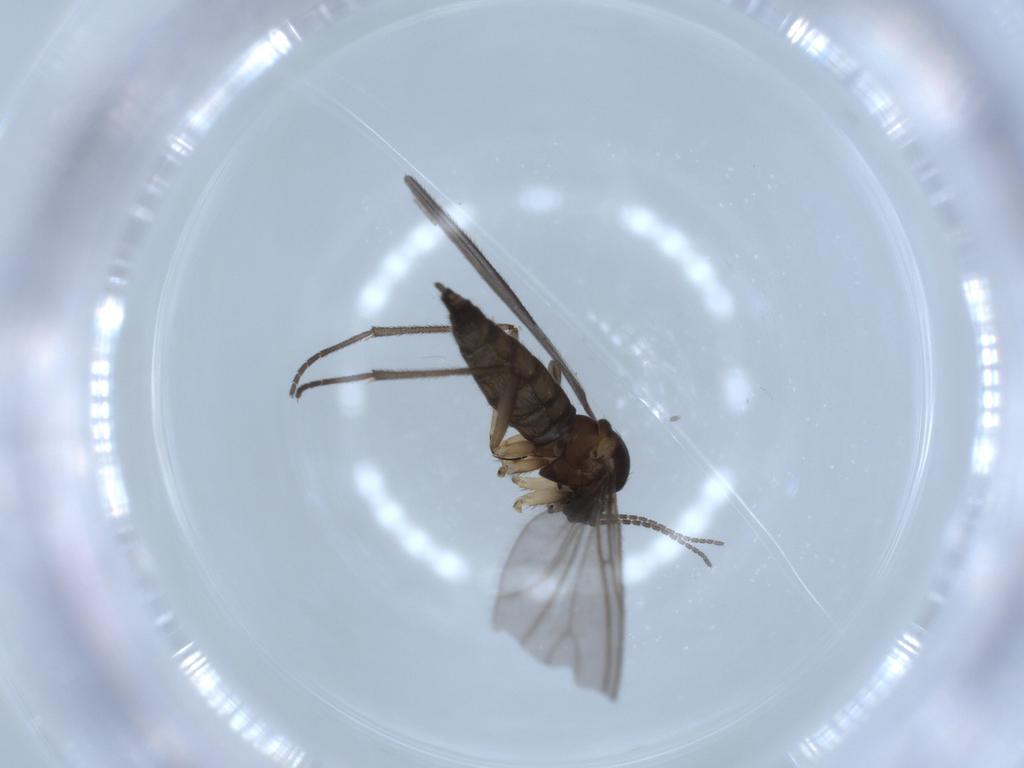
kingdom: Animalia
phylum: Arthropoda
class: Insecta
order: Diptera
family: Sciaridae
